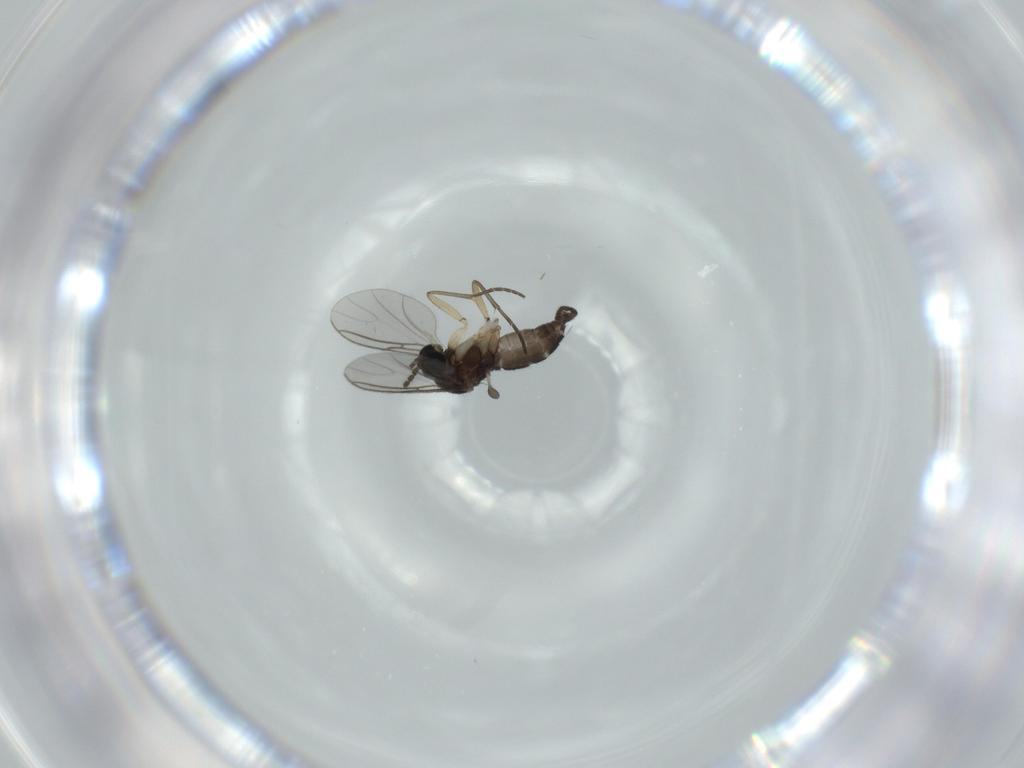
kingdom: Animalia
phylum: Arthropoda
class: Insecta
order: Diptera
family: Sciaridae
